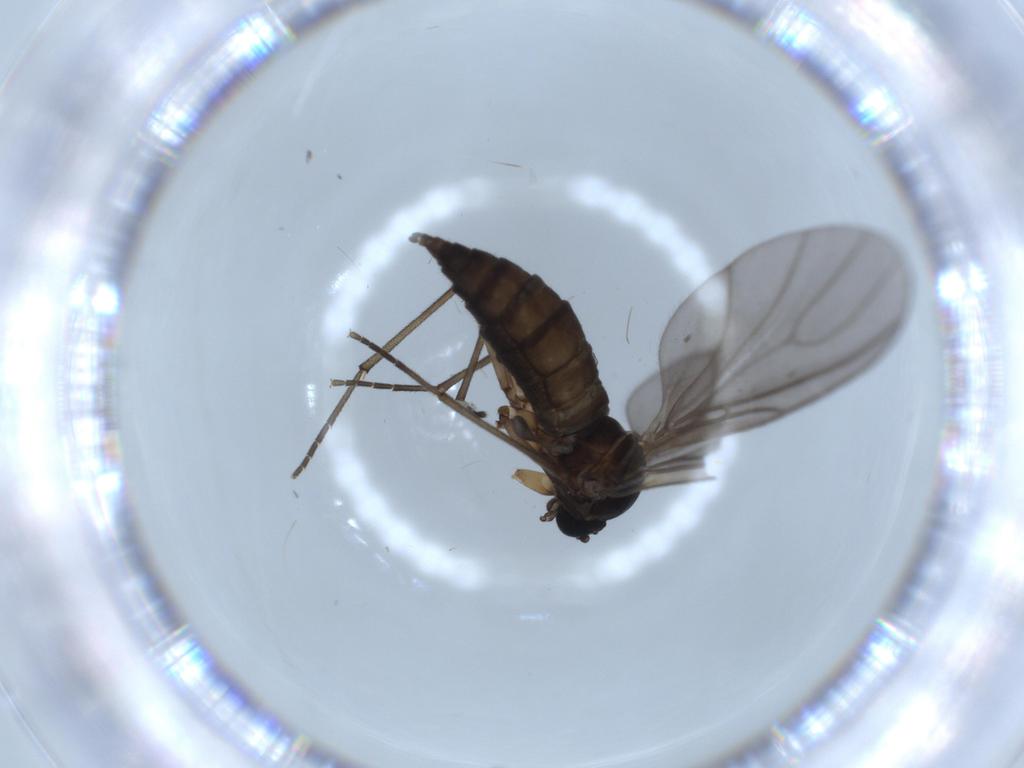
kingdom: Animalia
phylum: Arthropoda
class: Insecta
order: Diptera
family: Sciaridae
